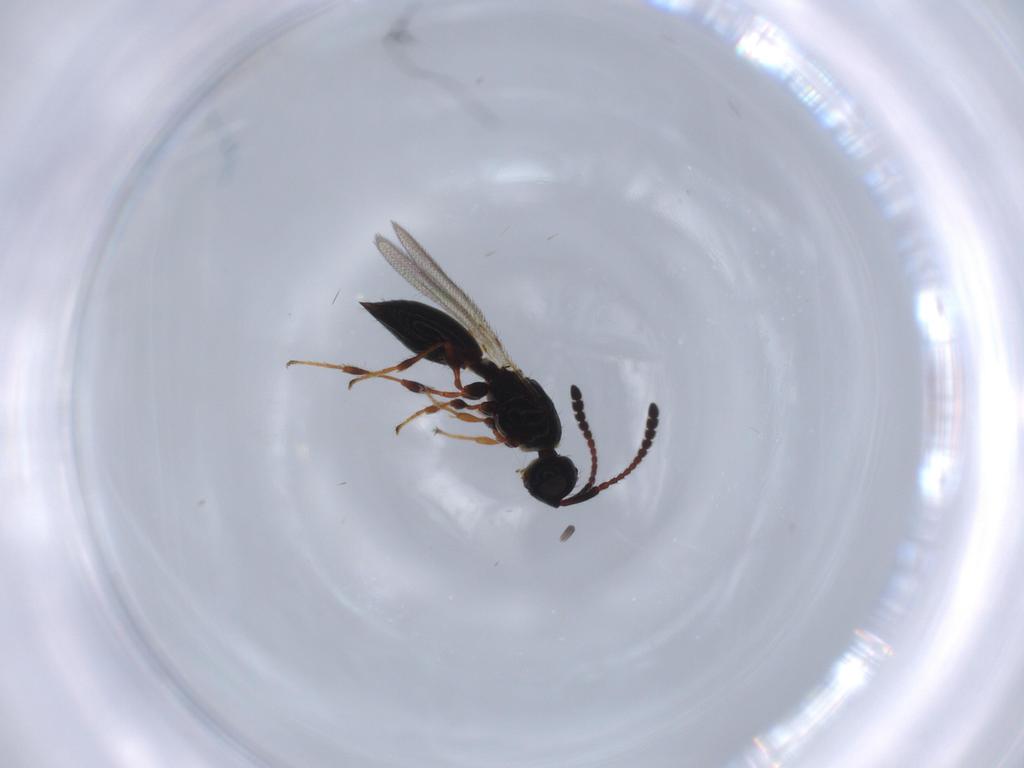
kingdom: Animalia
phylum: Arthropoda
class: Insecta
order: Hymenoptera
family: Diapriidae
